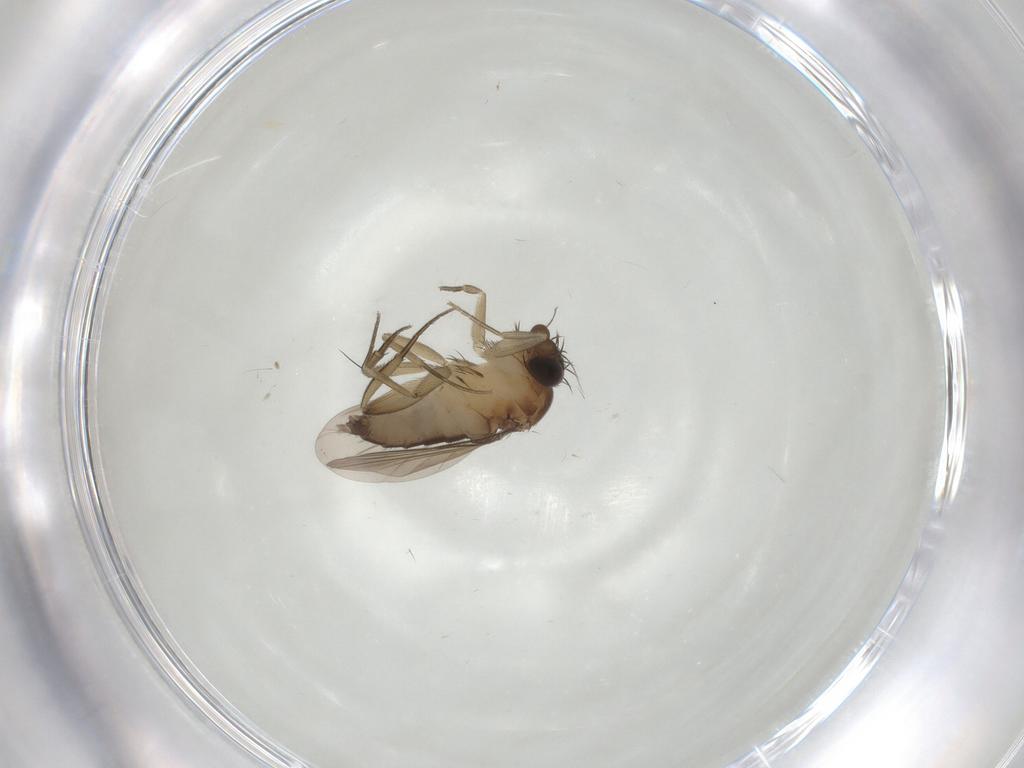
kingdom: Animalia
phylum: Arthropoda
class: Insecta
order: Diptera
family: Phoridae
